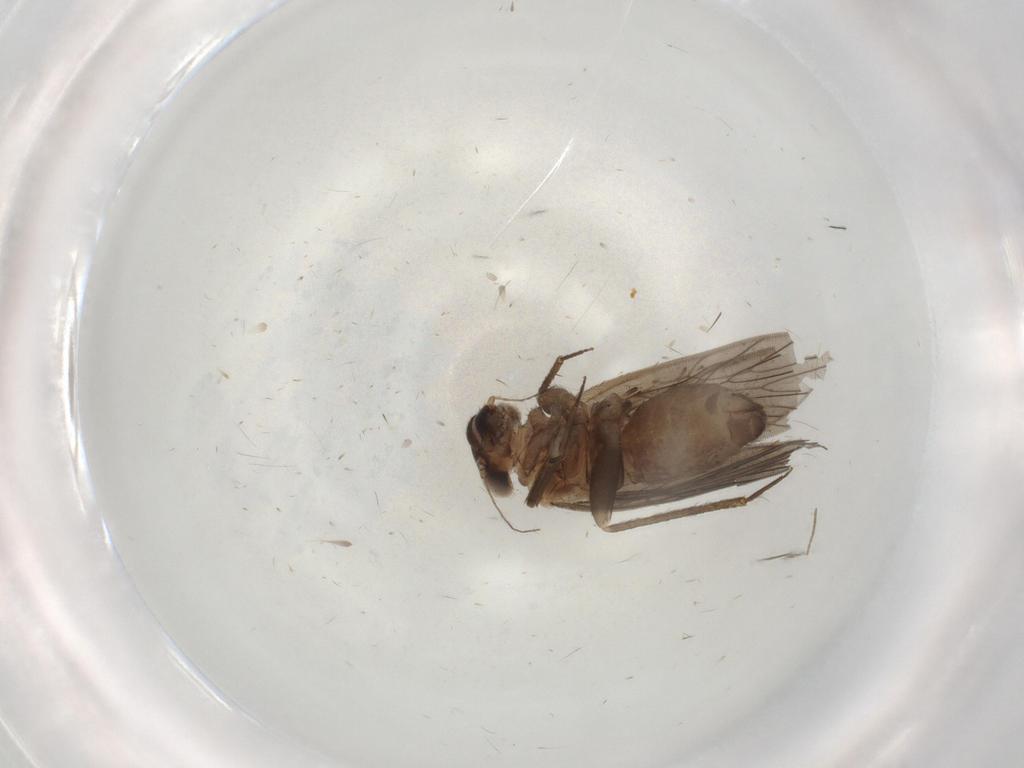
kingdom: Animalia
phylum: Arthropoda
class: Insecta
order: Psocodea
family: Lepidopsocidae
